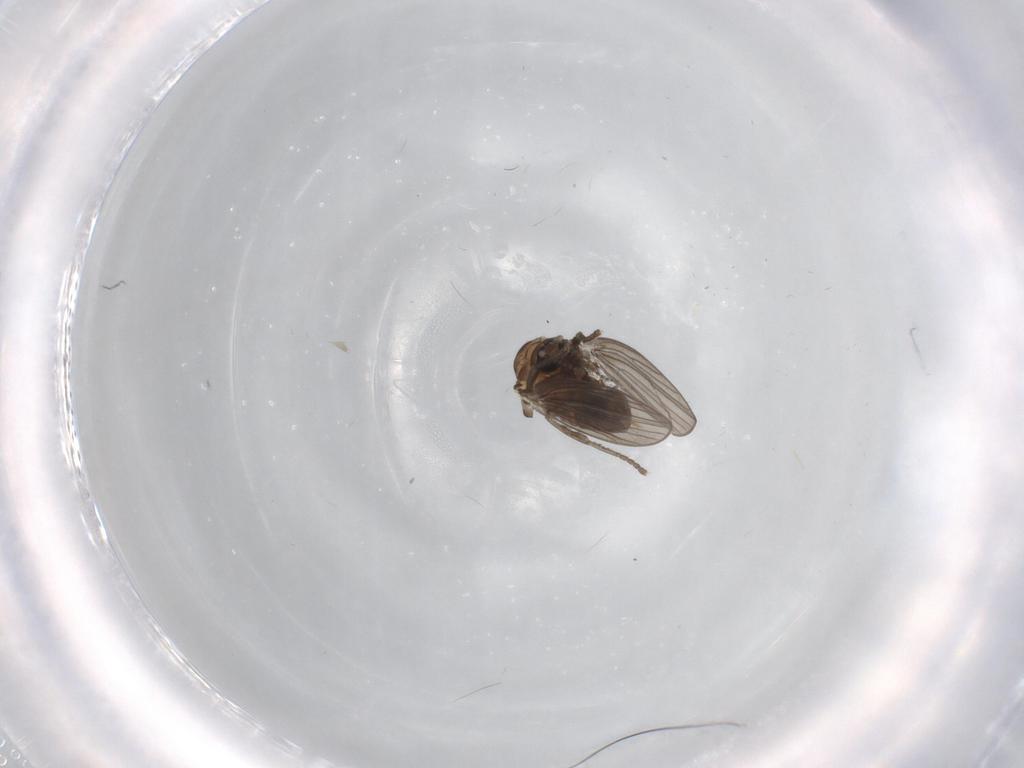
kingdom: Animalia
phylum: Arthropoda
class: Insecta
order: Diptera
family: Psychodidae
